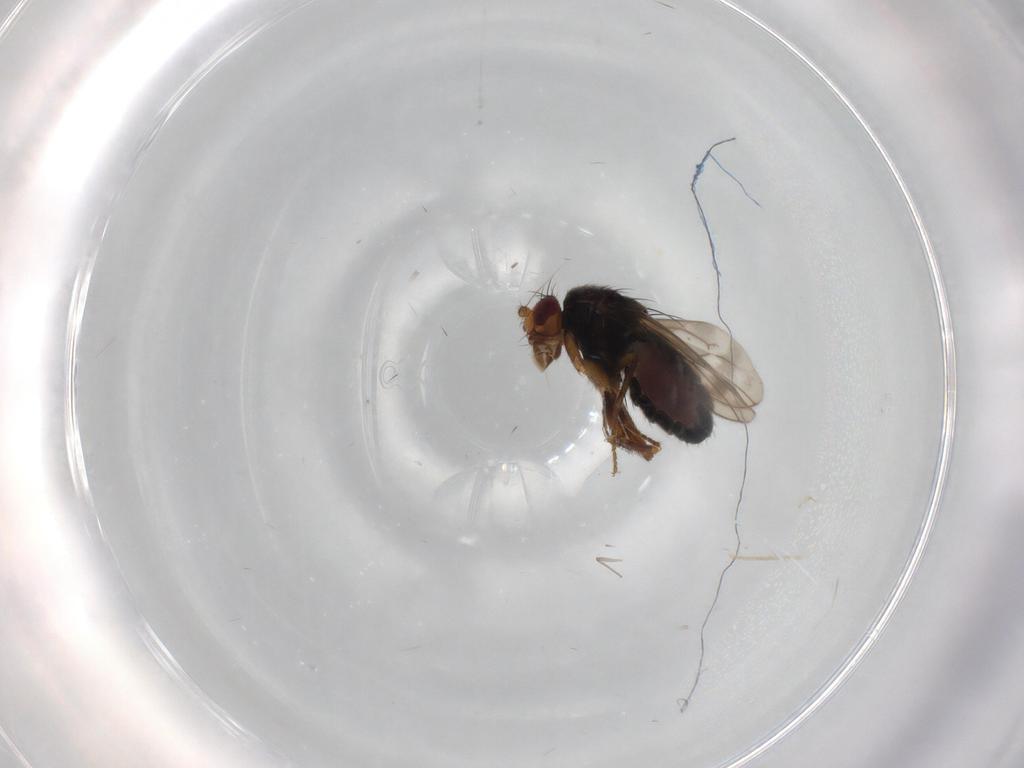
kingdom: Animalia
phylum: Arthropoda
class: Insecta
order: Diptera
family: Sphaeroceridae
